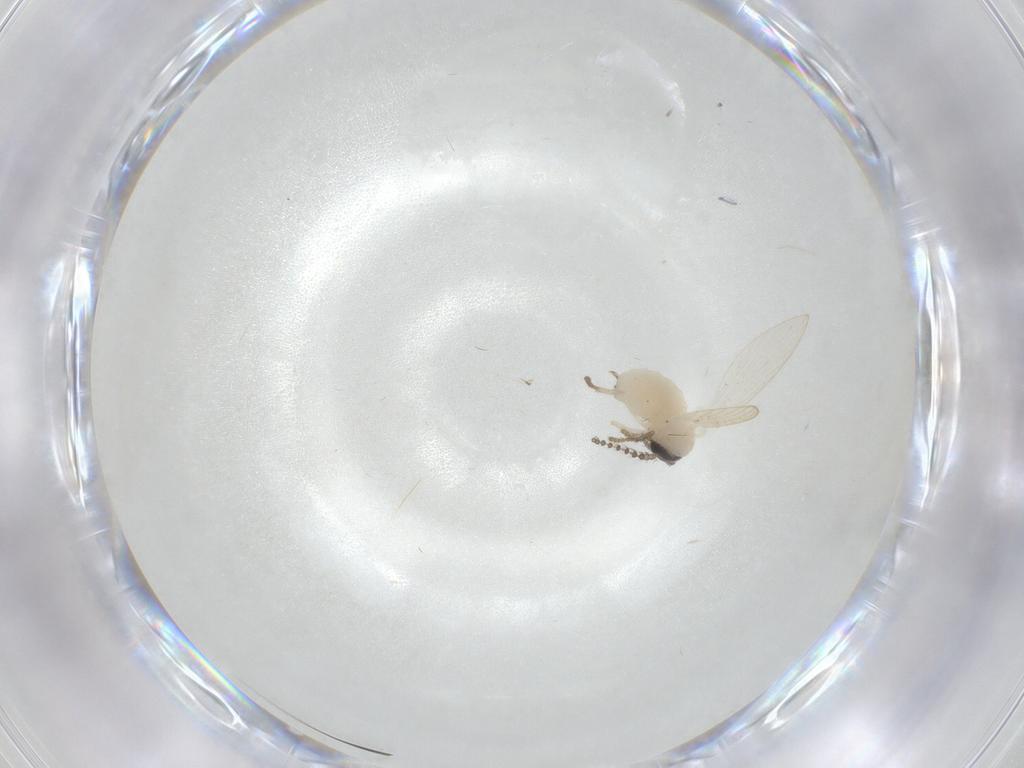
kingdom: Animalia
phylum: Arthropoda
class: Insecta
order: Diptera
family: Psychodidae
